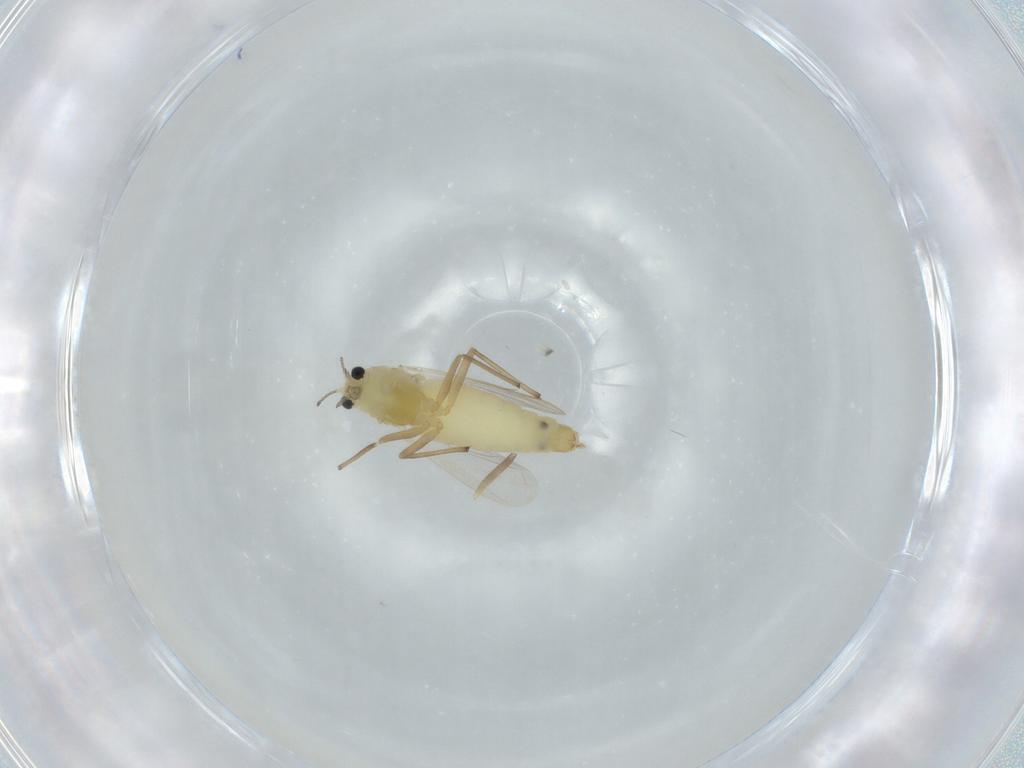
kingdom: Animalia
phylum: Arthropoda
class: Insecta
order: Diptera
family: Chironomidae
